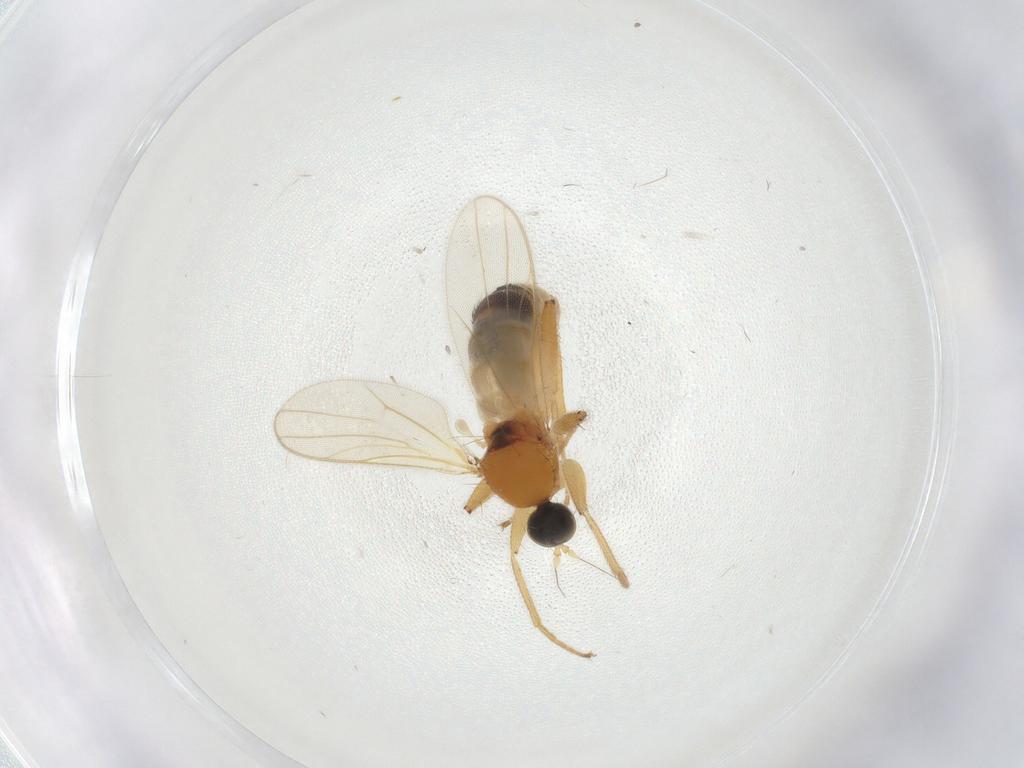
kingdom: Animalia
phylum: Arthropoda
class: Insecta
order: Diptera
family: Hybotidae
